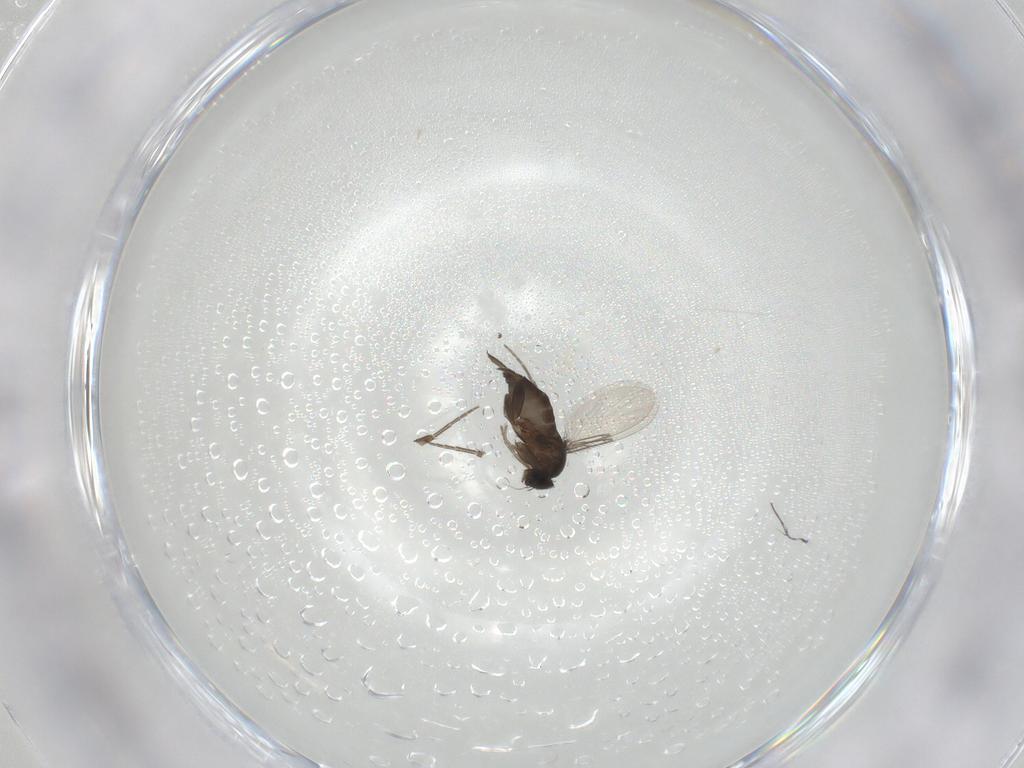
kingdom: Animalia
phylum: Arthropoda
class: Insecta
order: Diptera
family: Phoridae
